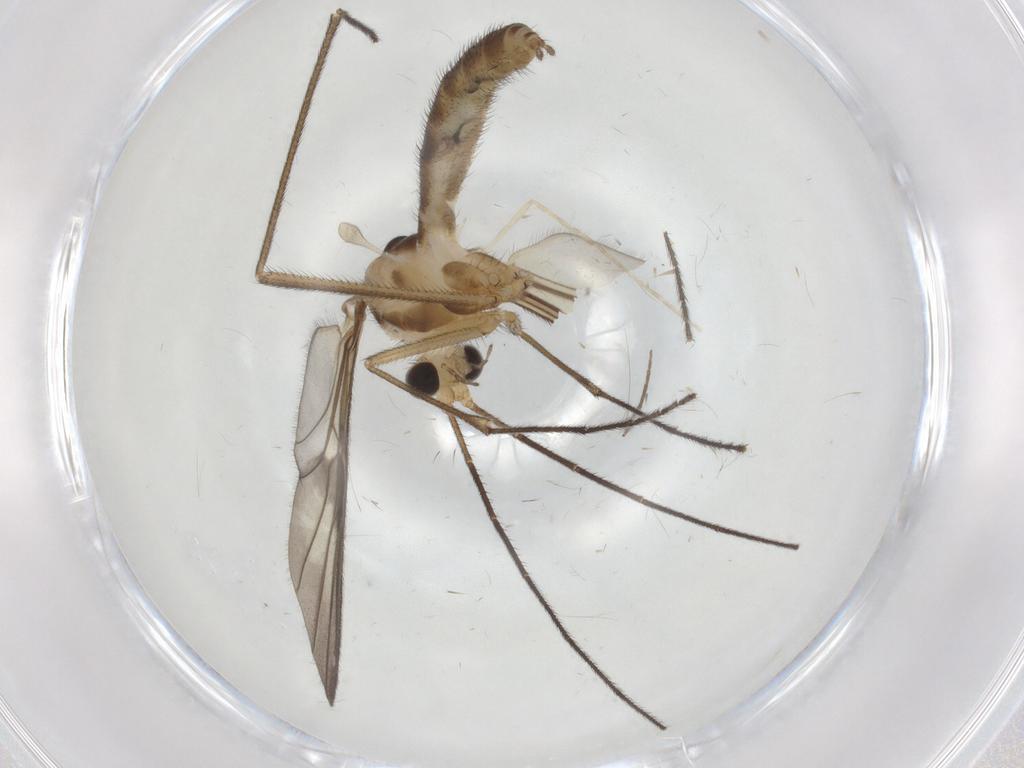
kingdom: Animalia
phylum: Arthropoda
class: Insecta
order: Diptera
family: Keroplatidae
